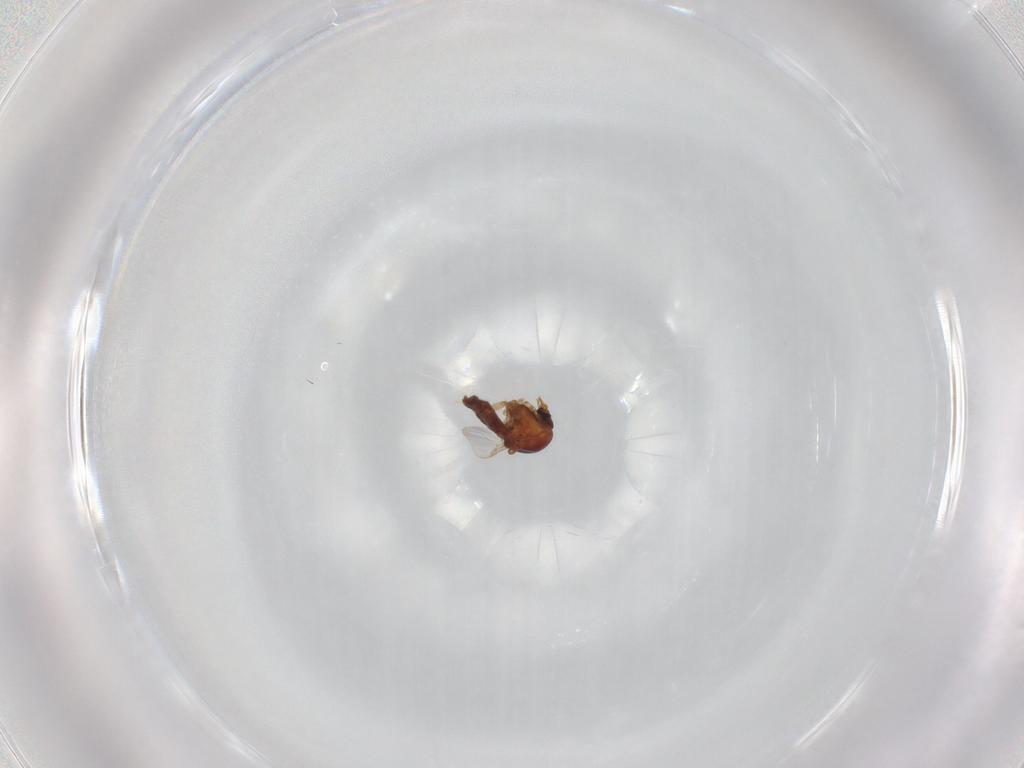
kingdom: Animalia
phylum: Arthropoda
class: Insecta
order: Diptera
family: Ceratopogonidae
